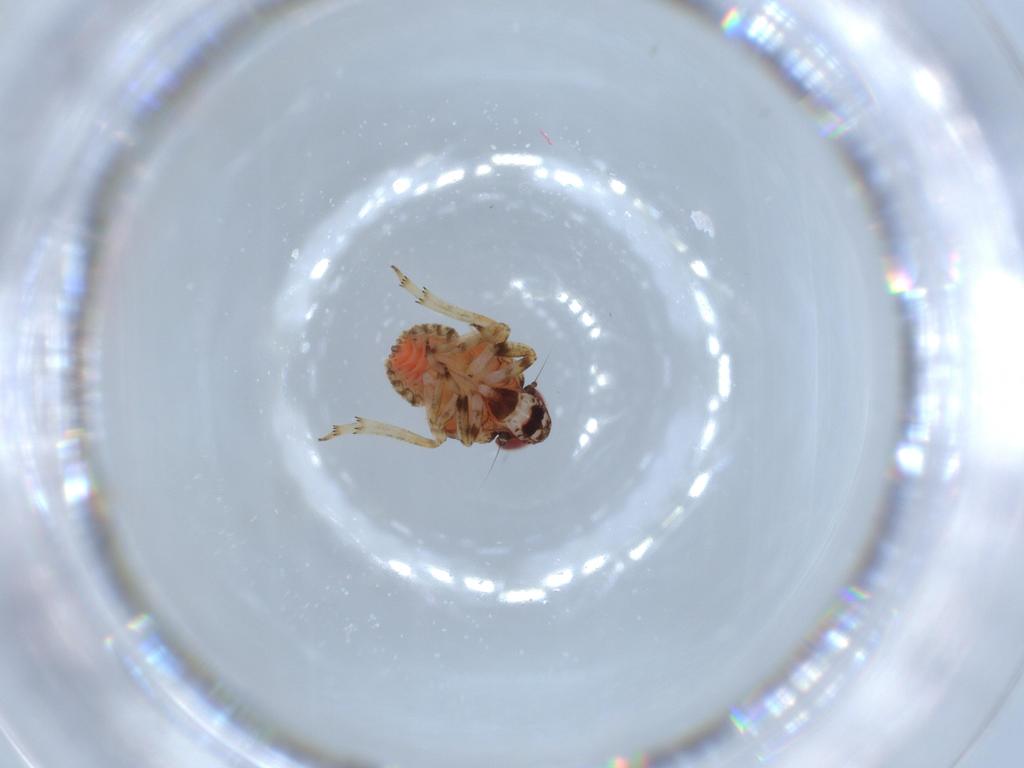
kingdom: Animalia
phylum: Arthropoda
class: Insecta
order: Hemiptera
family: Issidae
